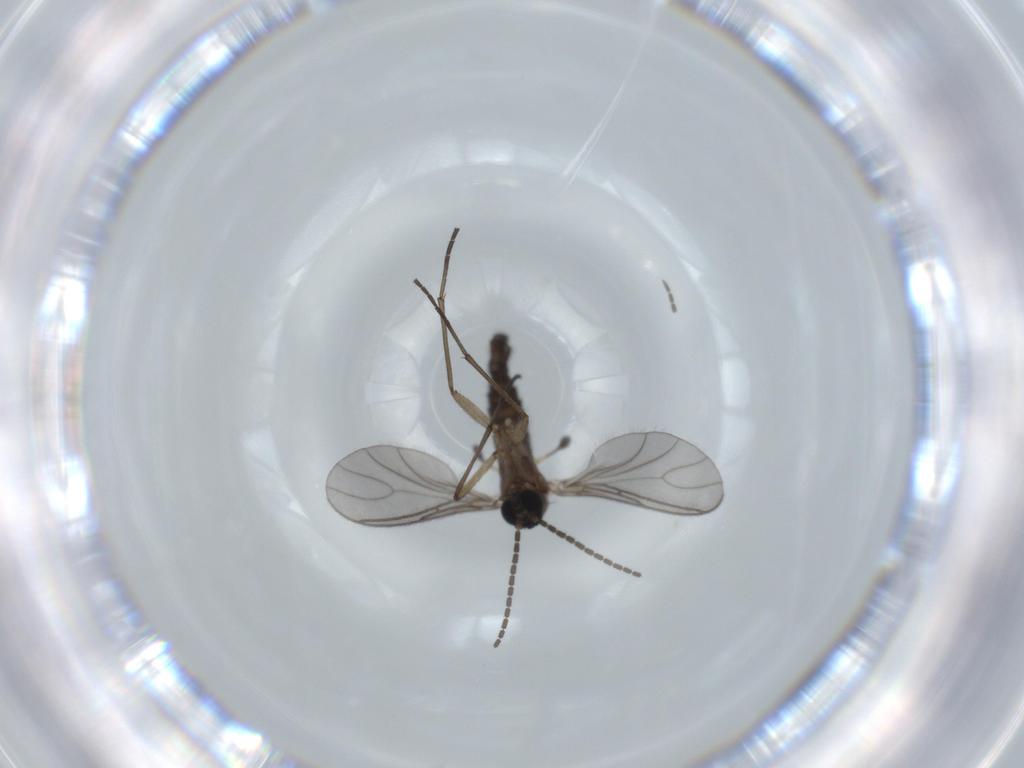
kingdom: Animalia
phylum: Arthropoda
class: Insecta
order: Diptera
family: Sciaridae
